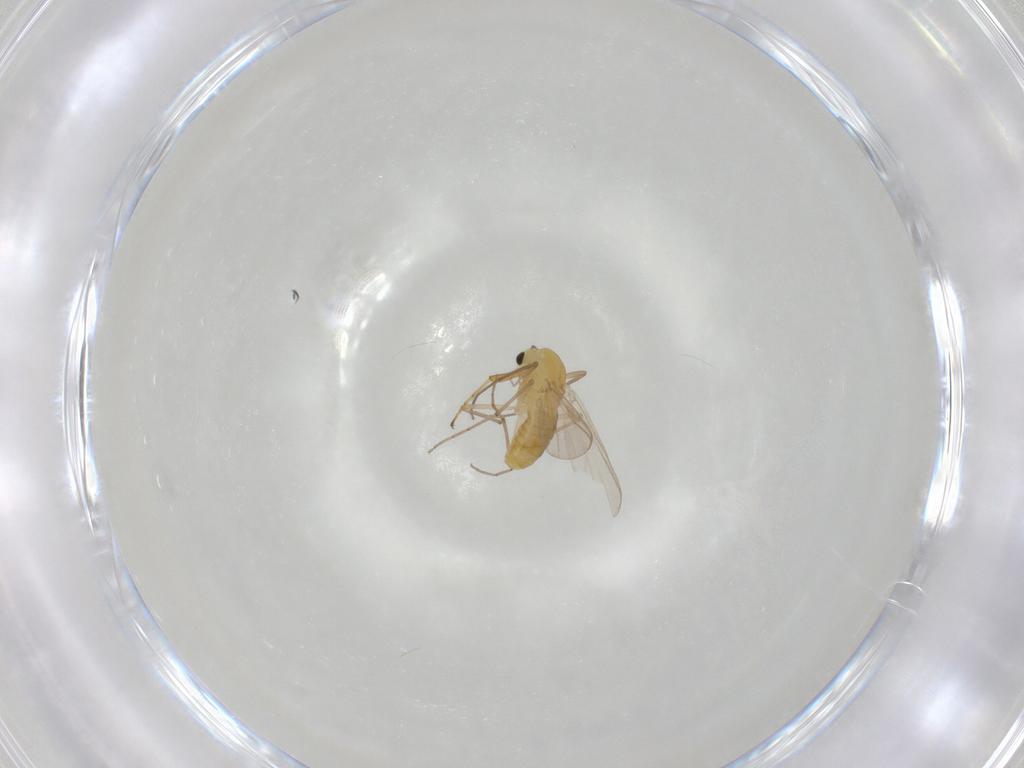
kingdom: Animalia
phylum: Arthropoda
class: Insecta
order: Diptera
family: Chironomidae
